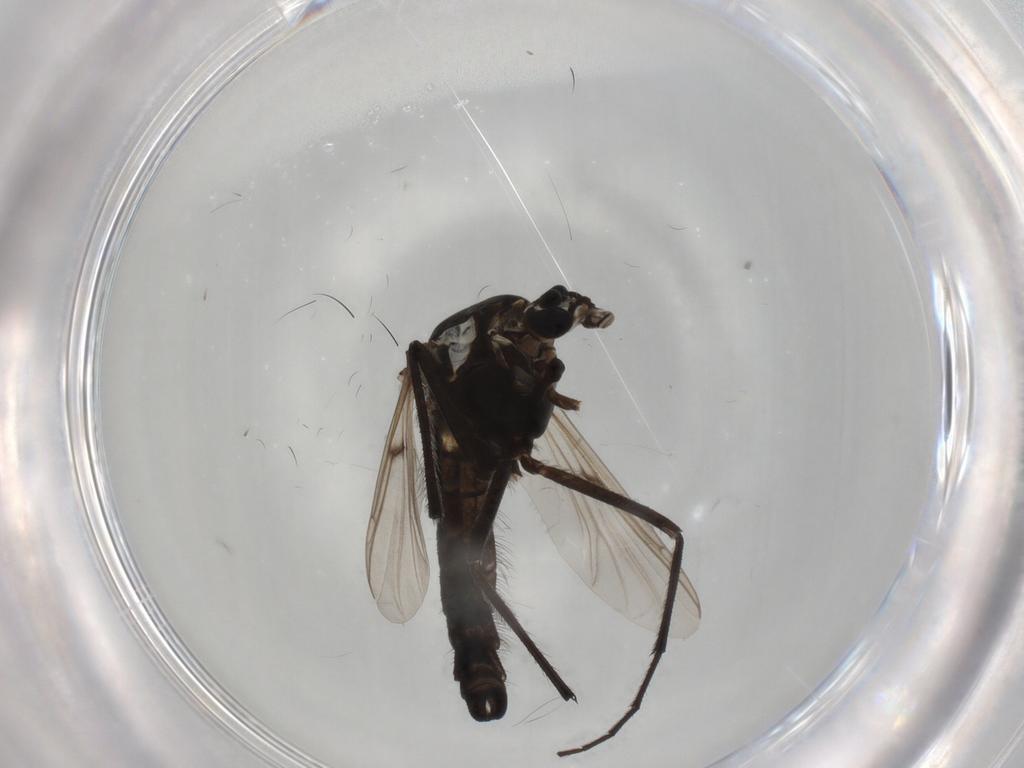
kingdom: Animalia
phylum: Arthropoda
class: Insecta
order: Diptera
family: Chironomidae
